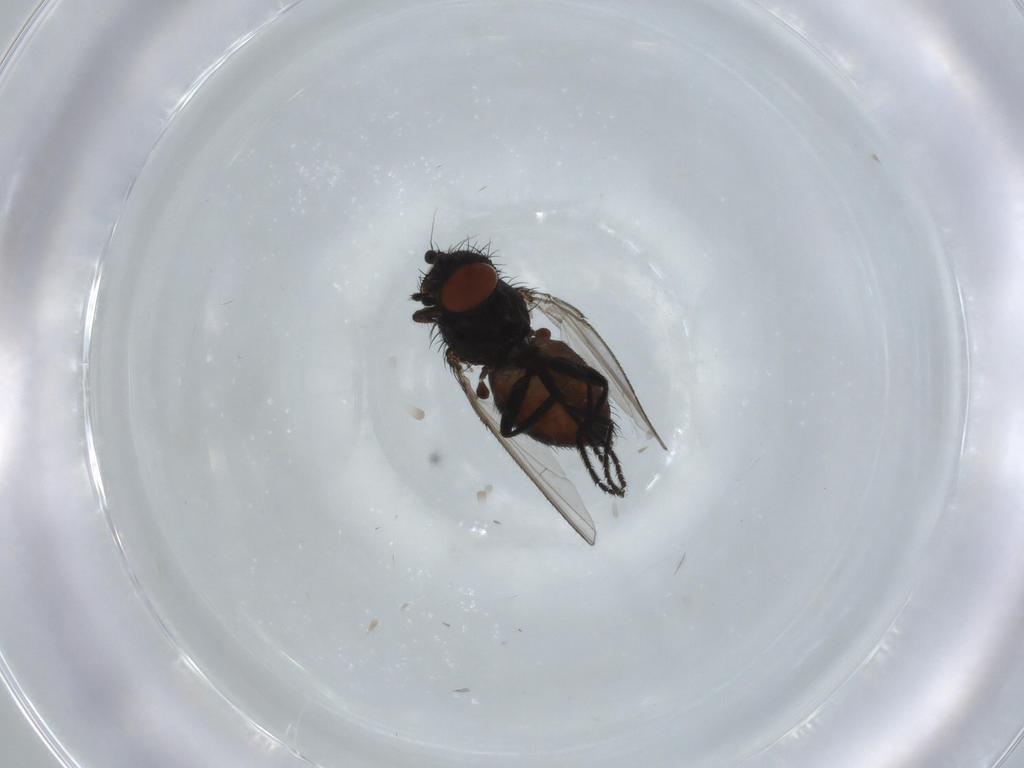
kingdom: Animalia
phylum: Arthropoda
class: Insecta
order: Diptera
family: Milichiidae
